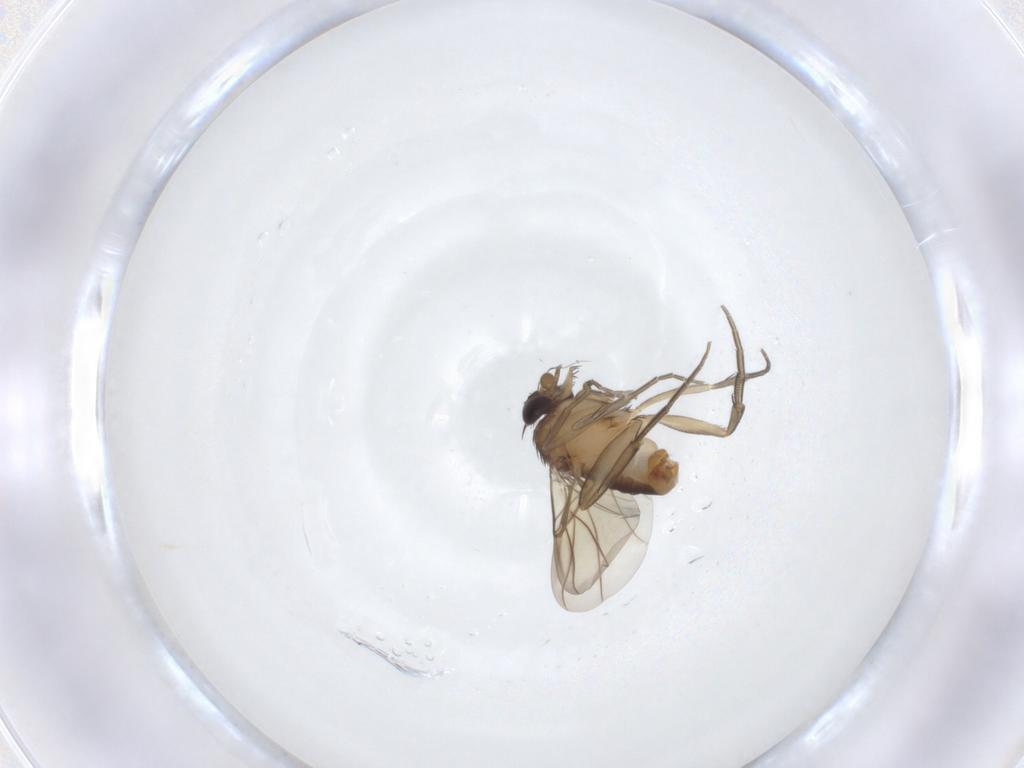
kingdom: Animalia
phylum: Arthropoda
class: Insecta
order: Diptera
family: Phoridae
